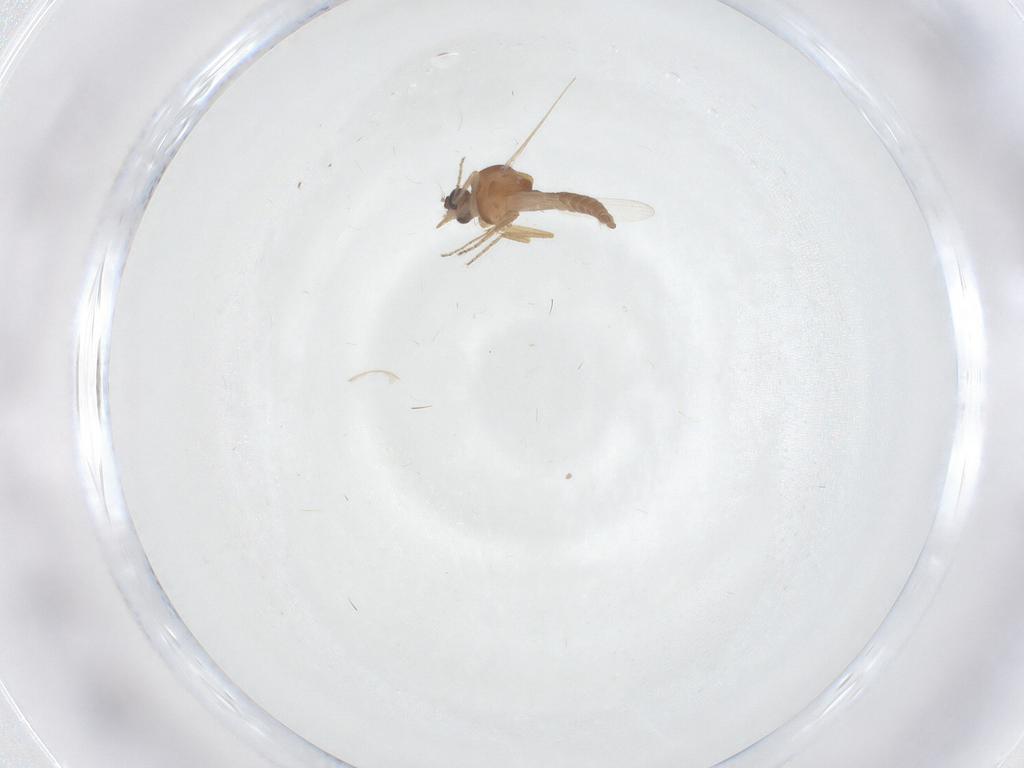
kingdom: Animalia
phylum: Arthropoda
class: Insecta
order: Diptera
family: Ceratopogonidae
